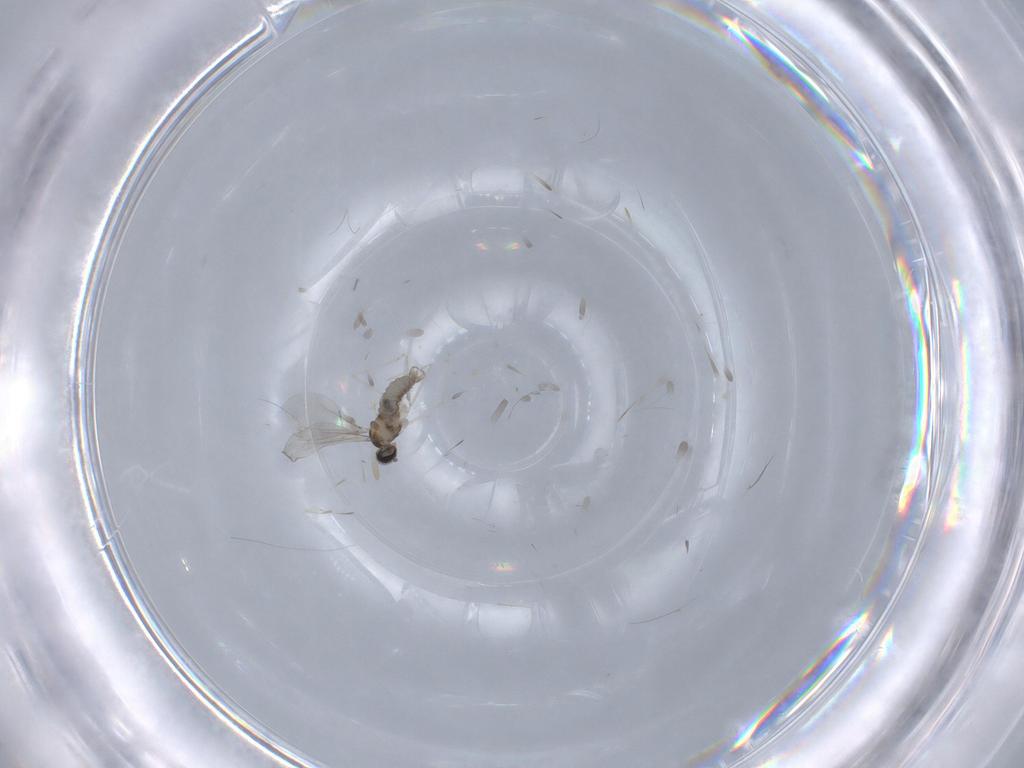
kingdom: Animalia
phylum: Arthropoda
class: Insecta
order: Diptera
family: Cecidomyiidae
